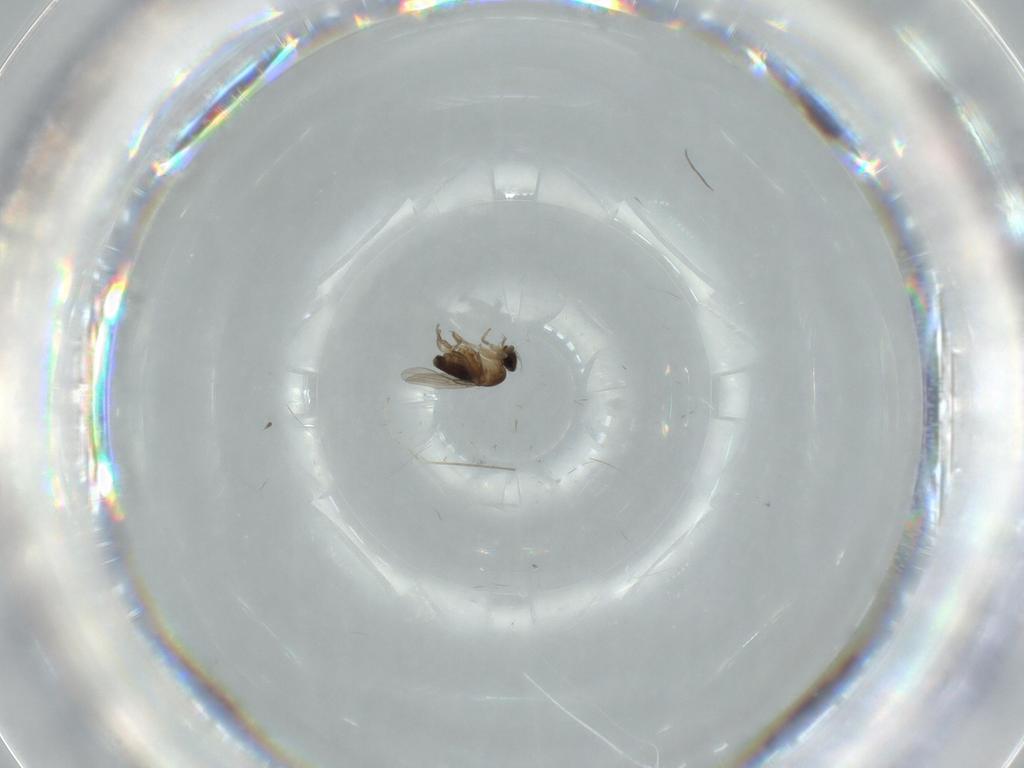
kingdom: Animalia
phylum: Arthropoda
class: Insecta
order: Diptera
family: Phoridae
